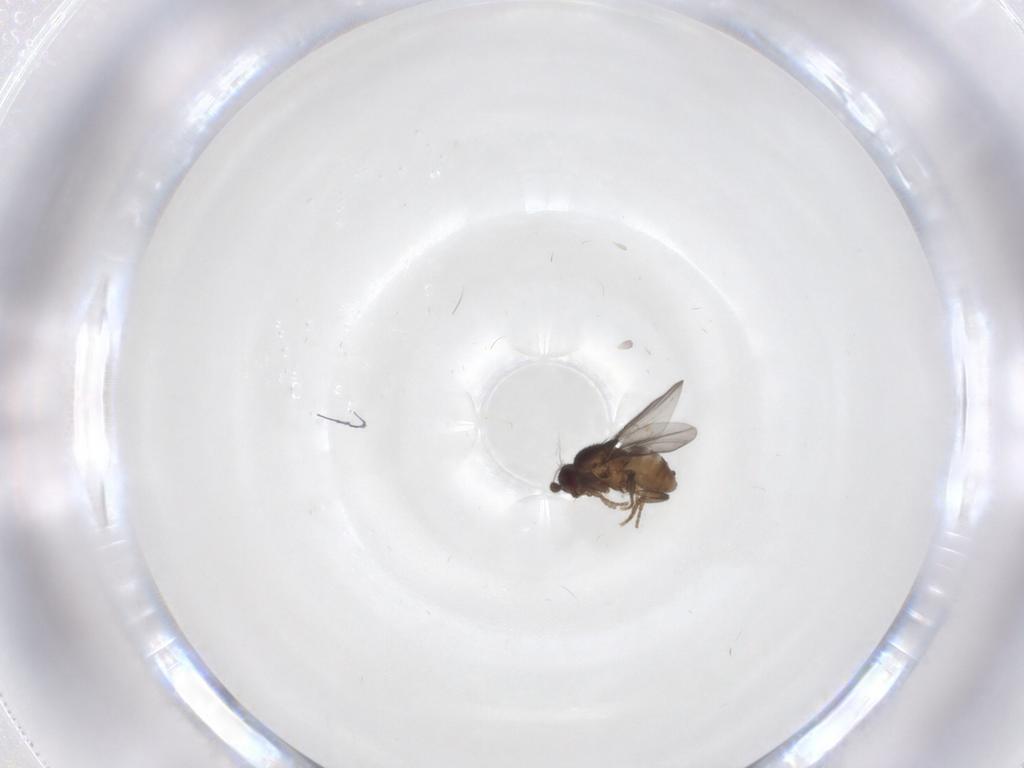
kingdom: Animalia
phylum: Arthropoda
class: Insecta
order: Diptera
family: Sphaeroceridae
